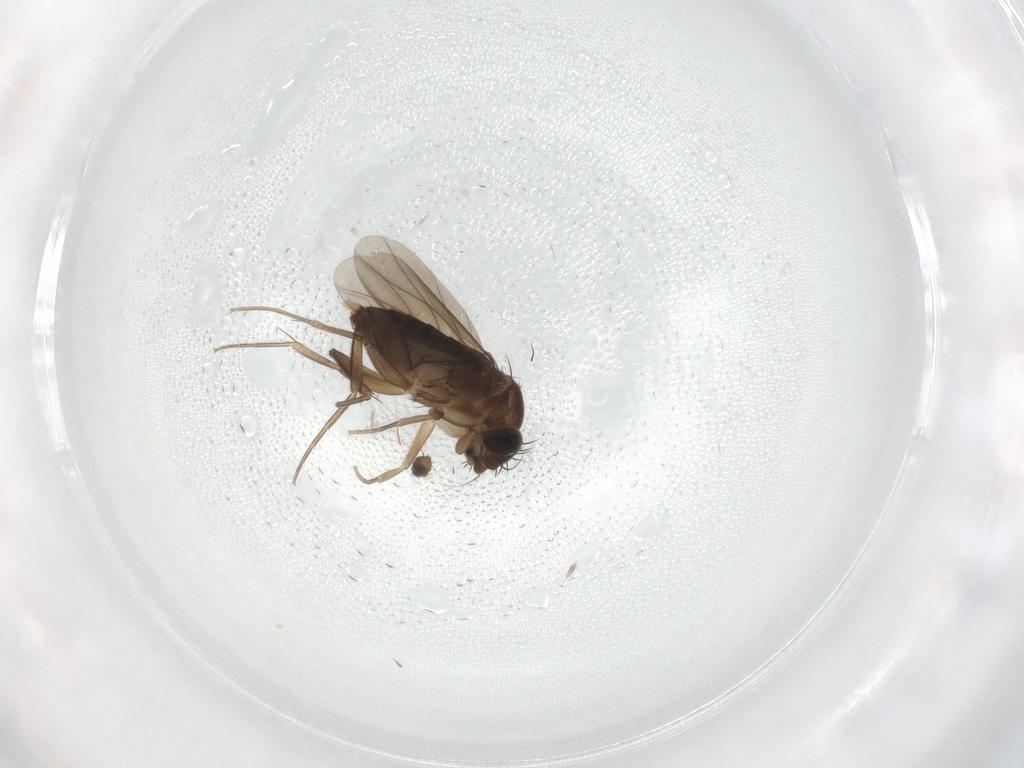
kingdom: Animalia
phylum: Arthropoda
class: Insecta
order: Diptera
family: Phoridae
